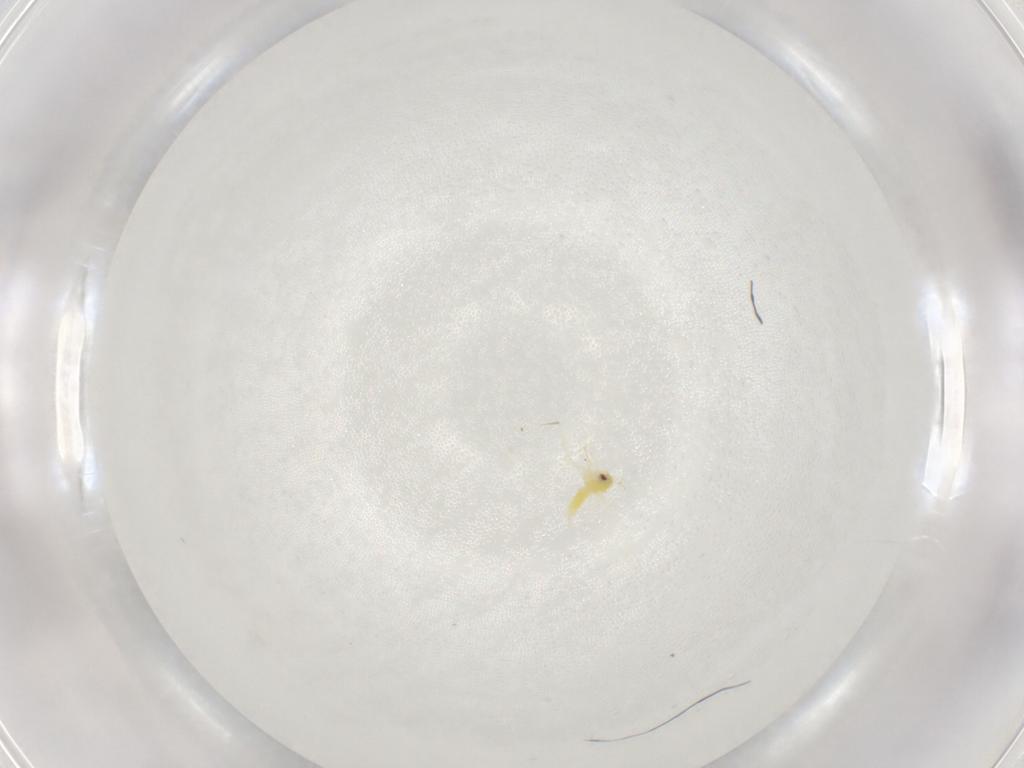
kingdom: Animalia
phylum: Arthropoda
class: Insecta
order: Hemiptera
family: Aleyrodidae
